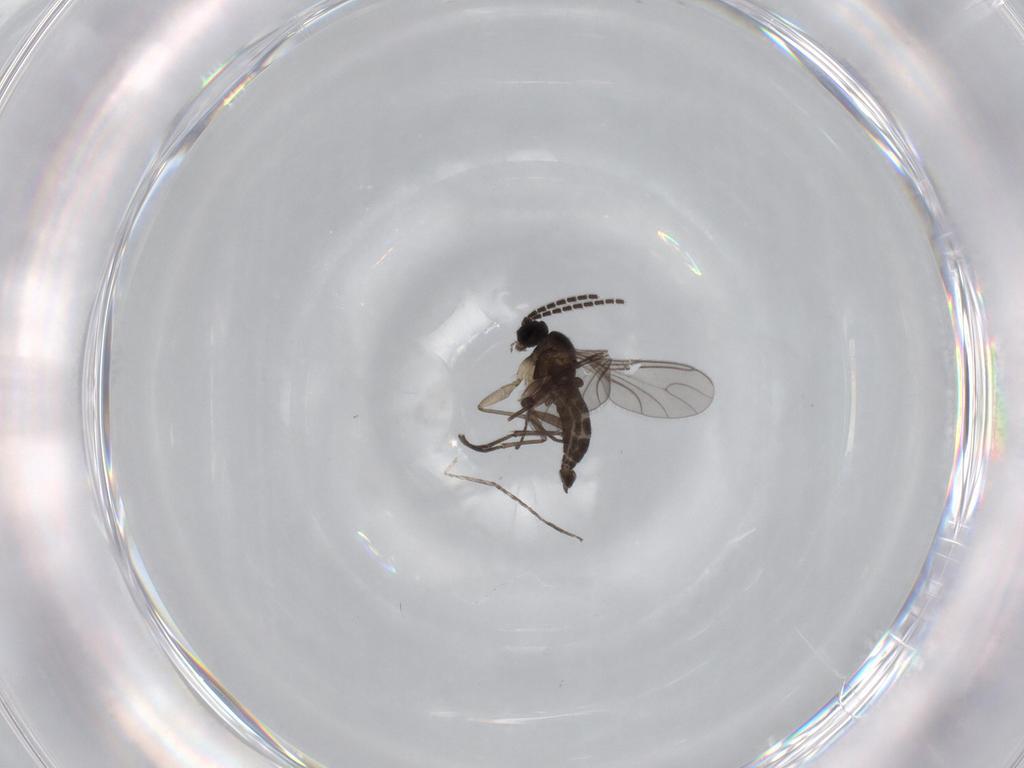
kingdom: Animalia
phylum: Arthropoda
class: Insecta
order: Diptera
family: Sciaridae
